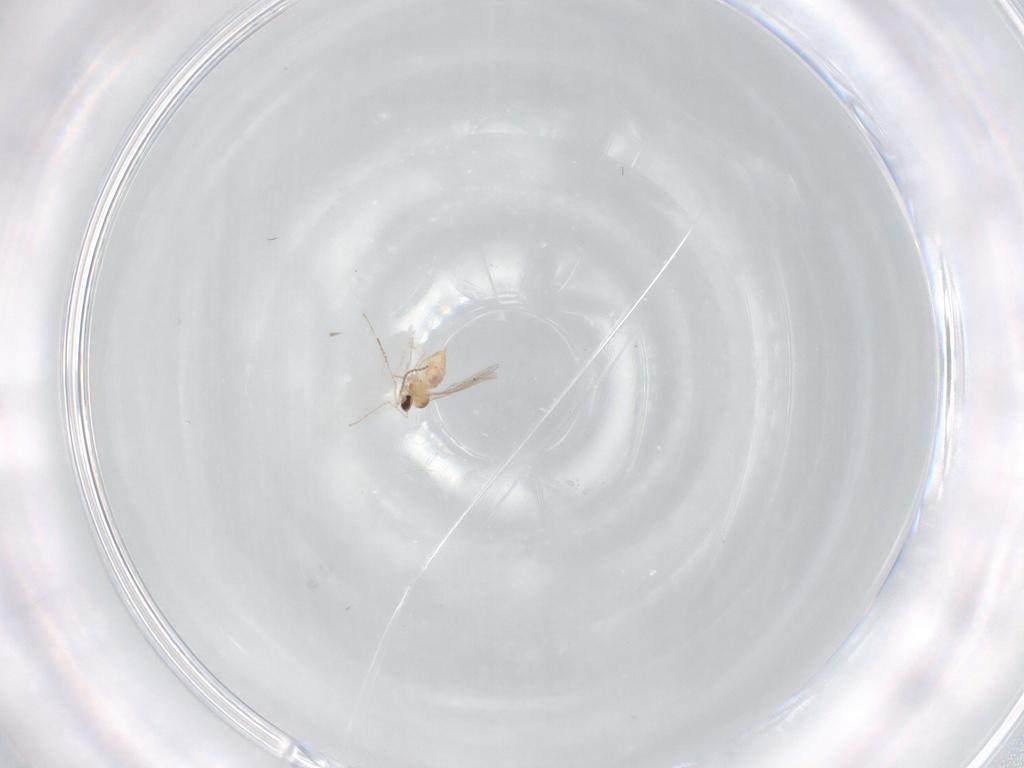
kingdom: Animalia
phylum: Arthropoda
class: Insecta
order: Diptera
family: Cecidomyiidae
